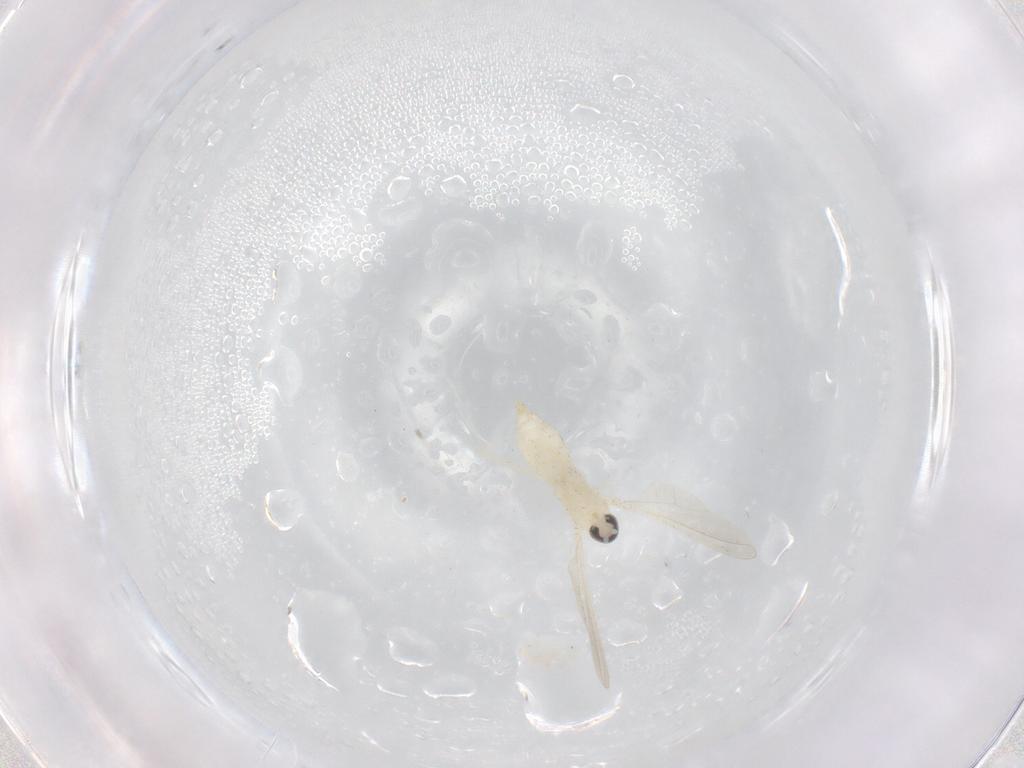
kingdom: Animalia
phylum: Arthropoda
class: Insecta
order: Diptera
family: Cecidomyiidae
